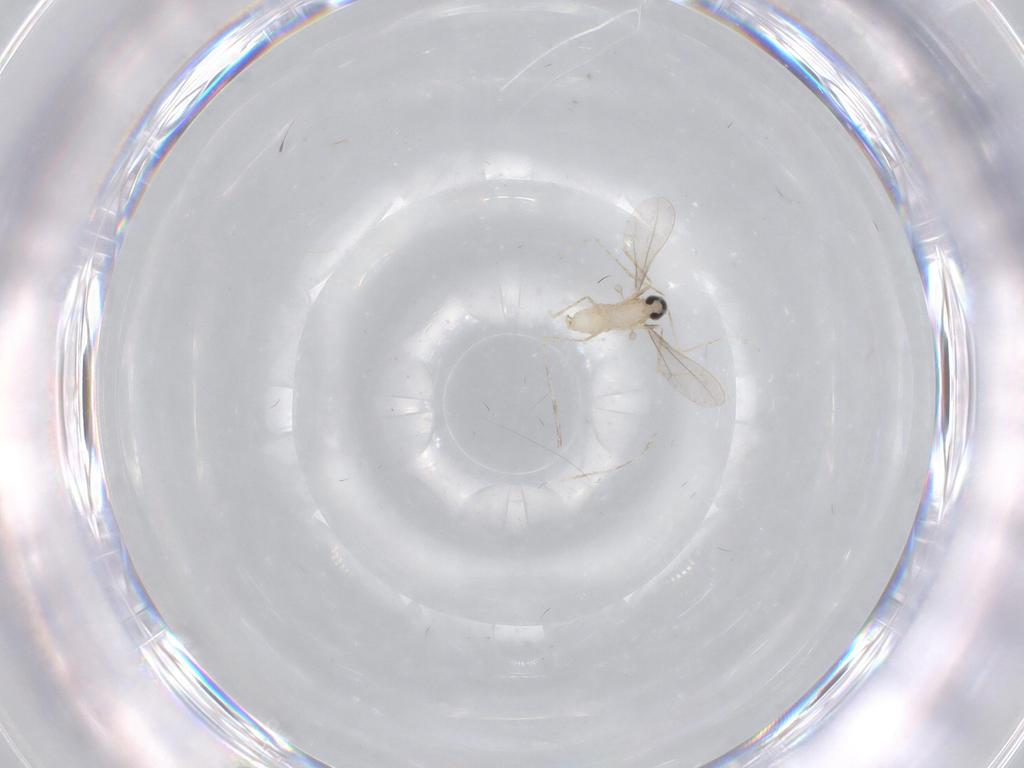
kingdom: Animalia
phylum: Arthropoda
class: Insecta
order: Diptera
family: Cecidomyiidae
